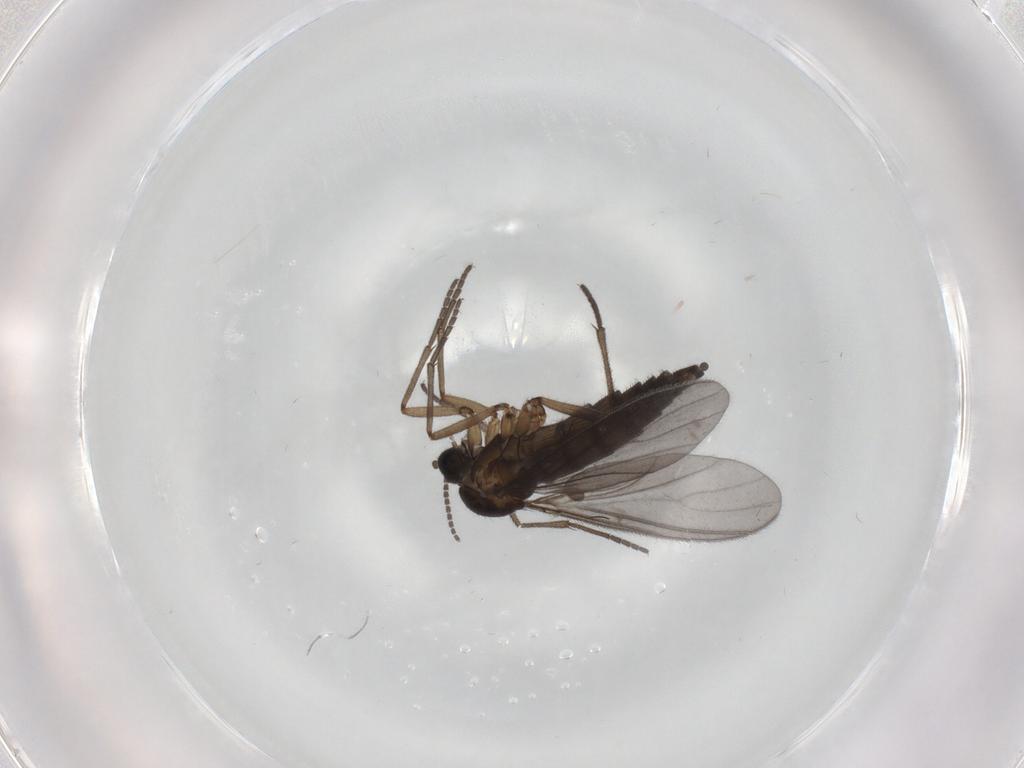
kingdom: Animalia
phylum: Arthropoda
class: Insecta
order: Diptera
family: Sciaridae
